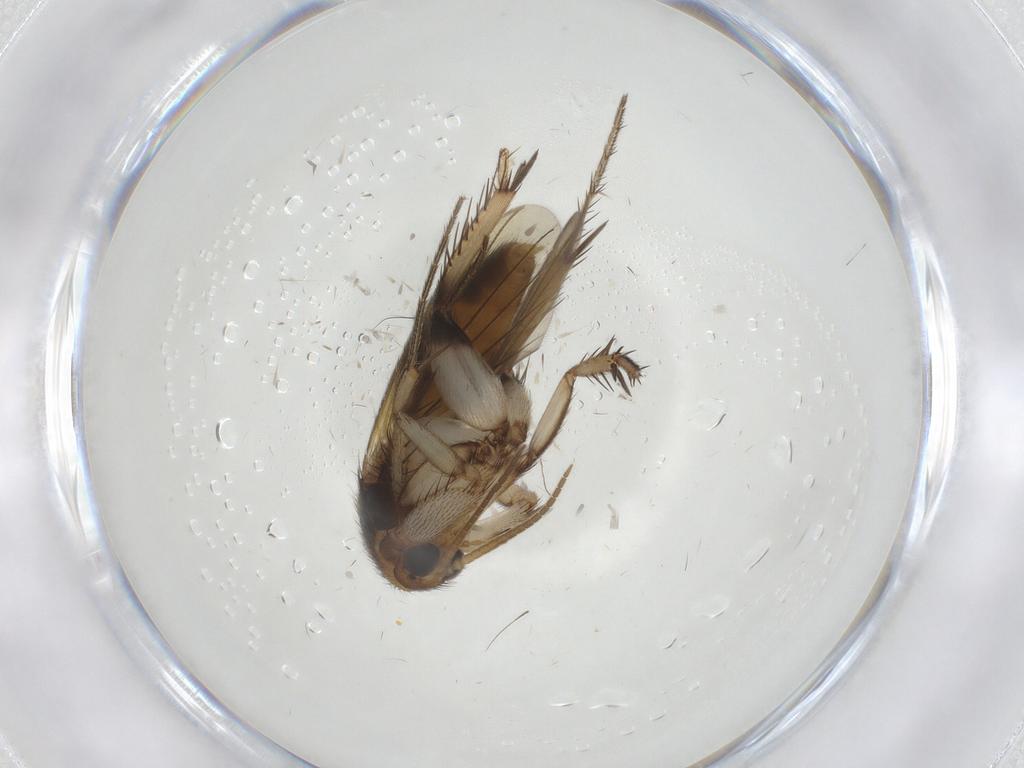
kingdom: Animalia
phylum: Arthropoda
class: Insecta
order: Diptera
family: Mycetophilidae
